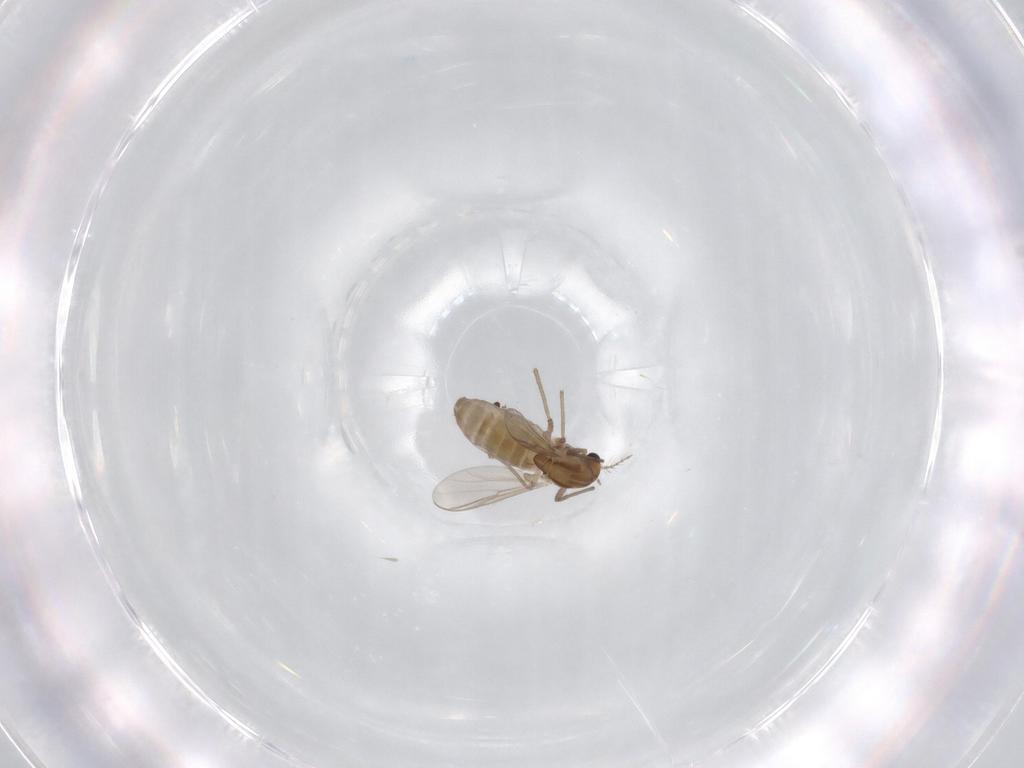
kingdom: Animalia
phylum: Arthropoda
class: Insecta
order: Diptera
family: Chironomidae
